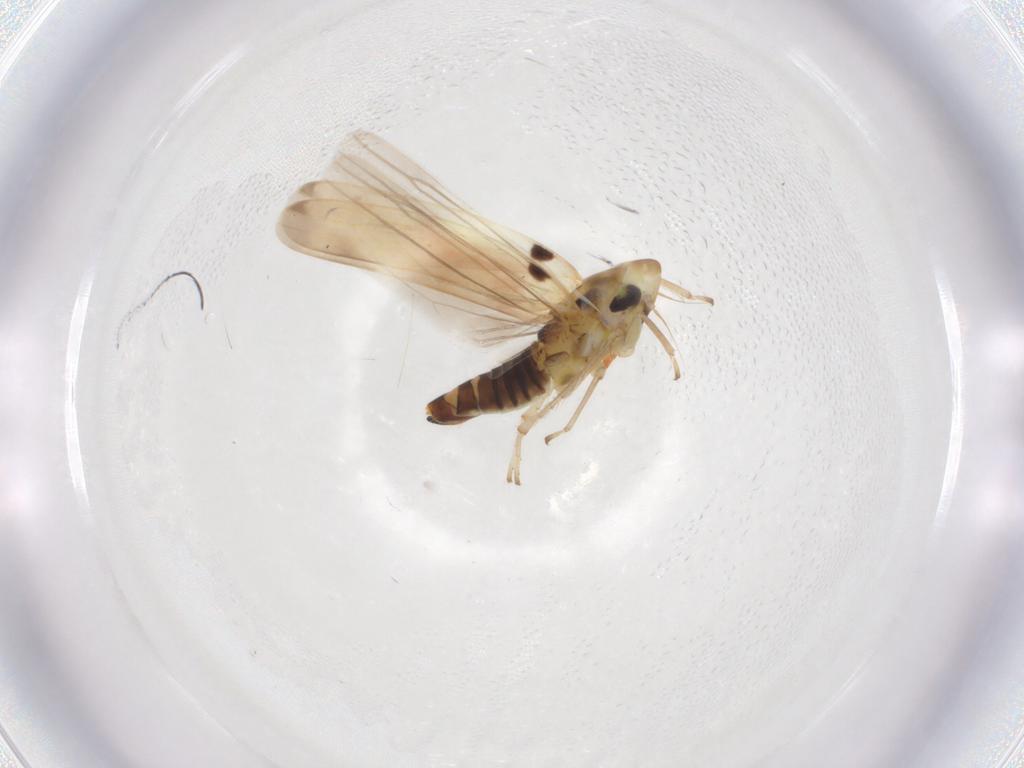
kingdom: Animalia
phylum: Arthropoda
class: Insecta
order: Hemiptera
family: Cicadellidae
